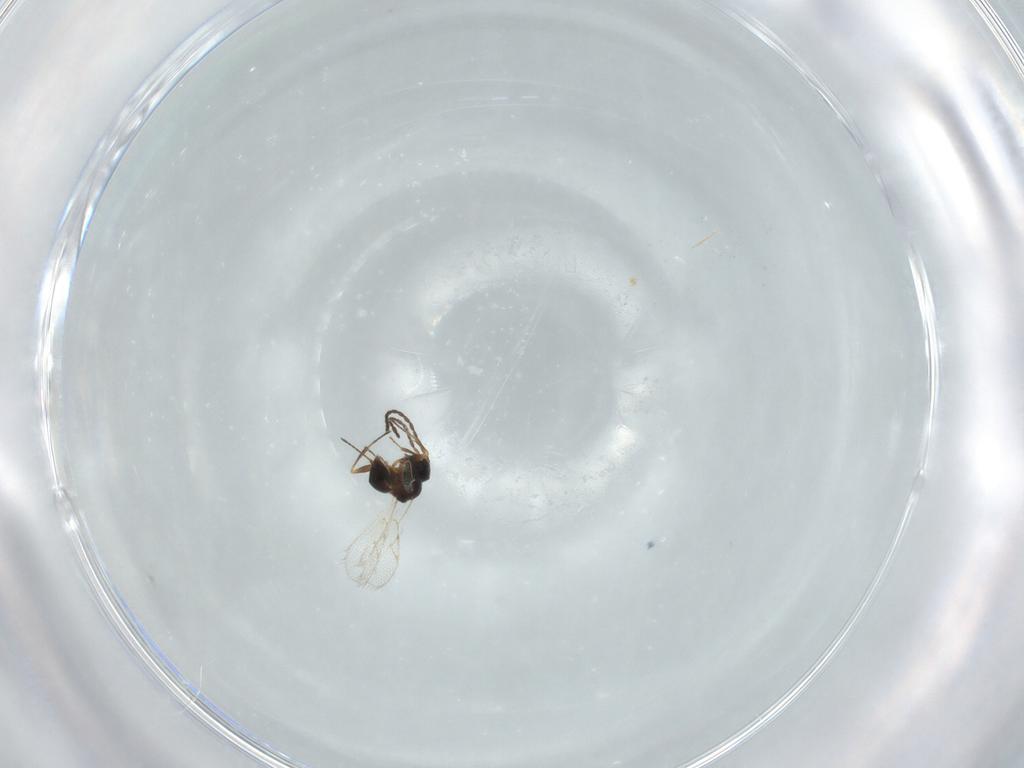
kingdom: Animalia
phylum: Arthropoda
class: Insecta
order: Hymenoptera
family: Figitidae
